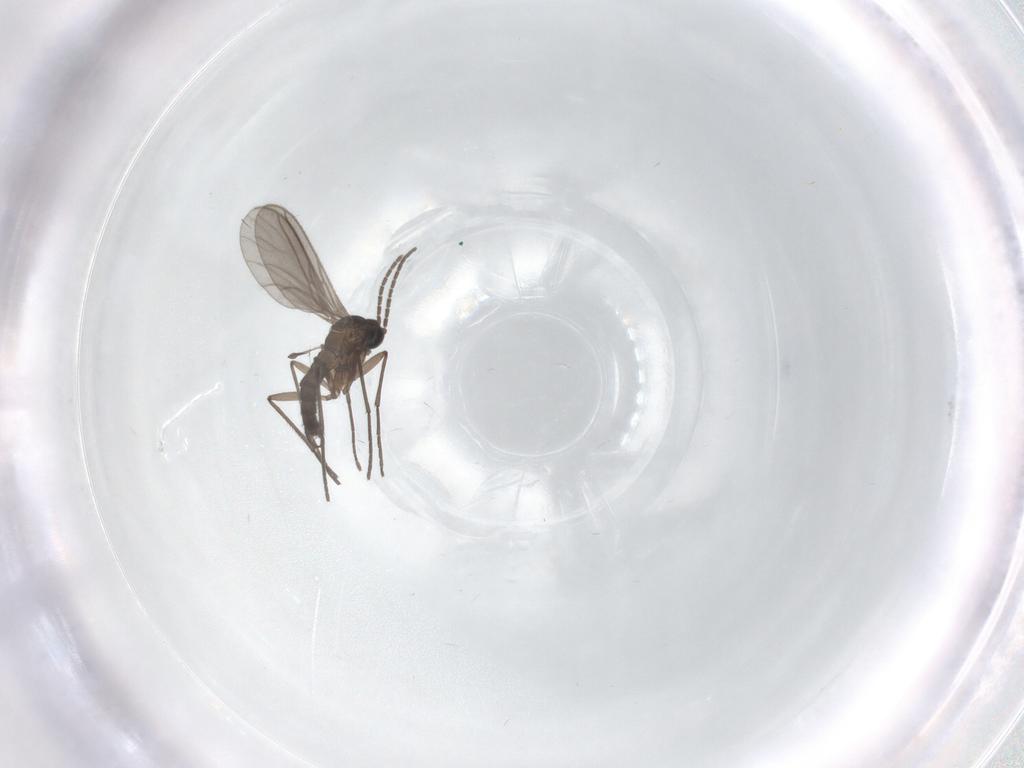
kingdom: Animalia
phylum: Arthropoda
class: Insecta
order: Diptera
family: Sciaridae
